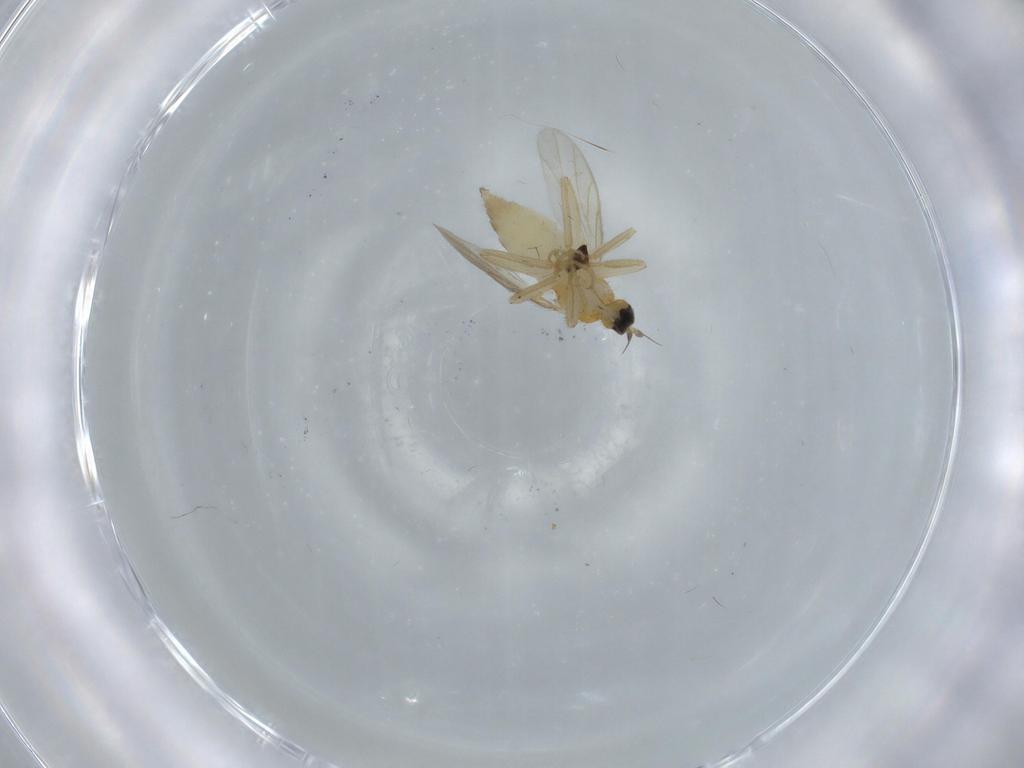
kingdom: Animalia
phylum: Arthropoda
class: Insecta
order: Diptera
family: Hybotidae
